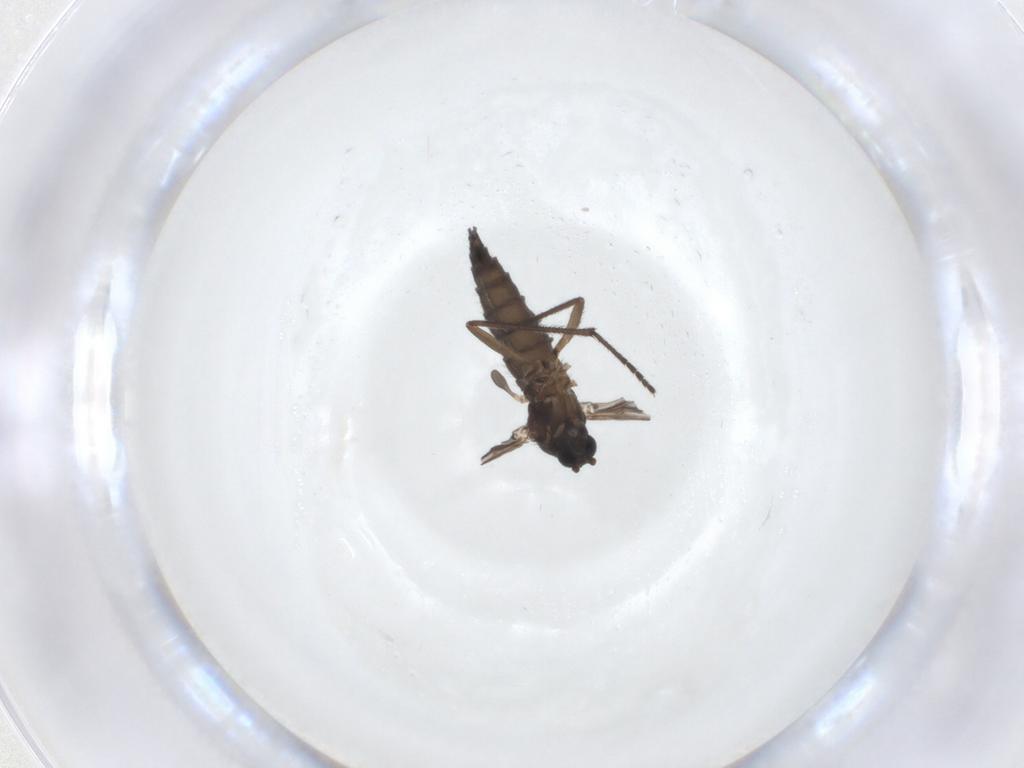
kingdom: Animalia
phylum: Arthropoda
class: Insecta
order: Diptera
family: Sciaridae
